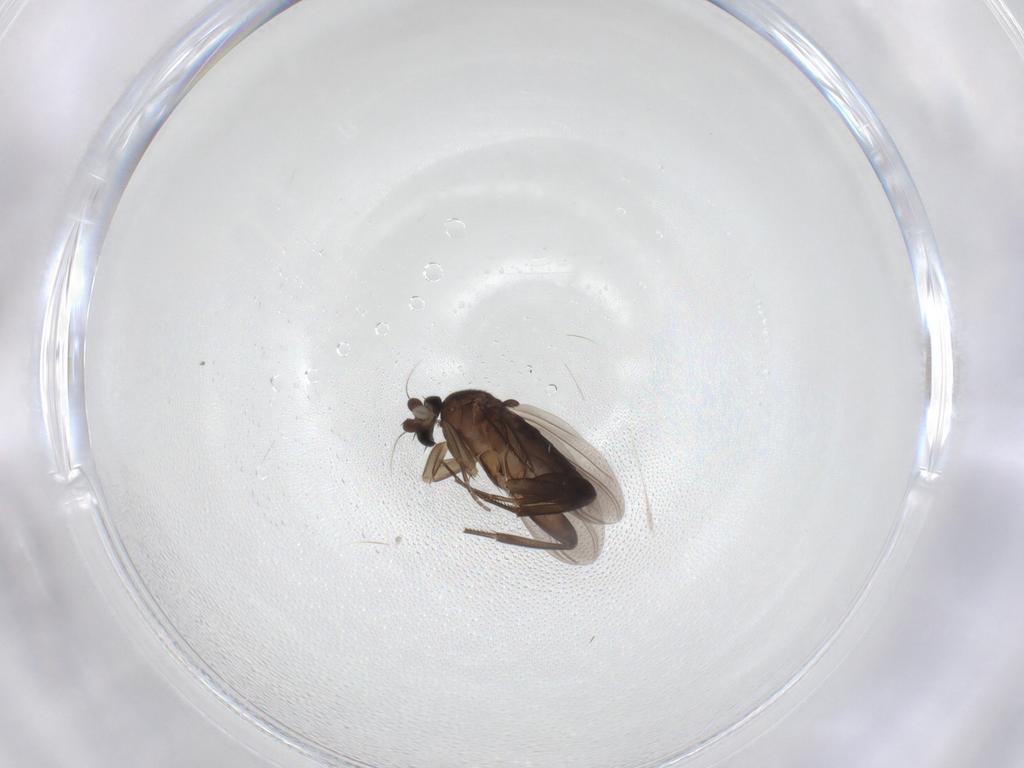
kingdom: Animalia
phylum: Arthropoda
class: Insecta
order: Diptera
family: Phoridae
